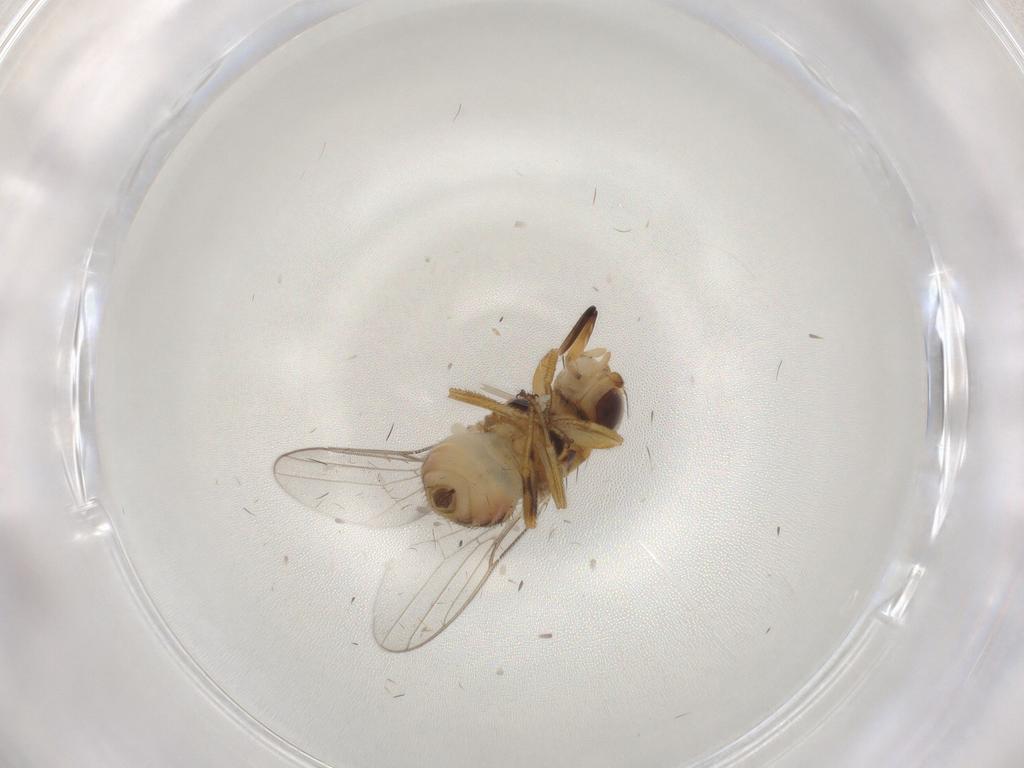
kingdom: Animalia
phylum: Arthropoda
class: Insecta
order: Diptera
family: Chloropidae
